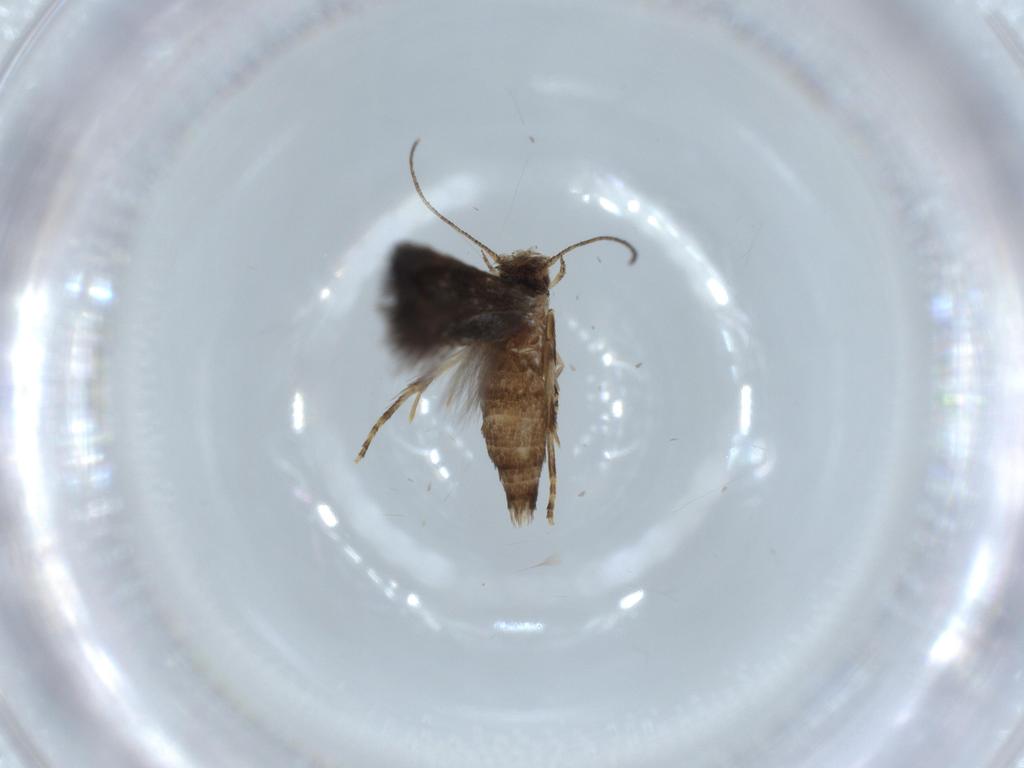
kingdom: Animalia
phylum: Arthropoda
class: Insecta
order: Lepidoptera
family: Gelechiidae
